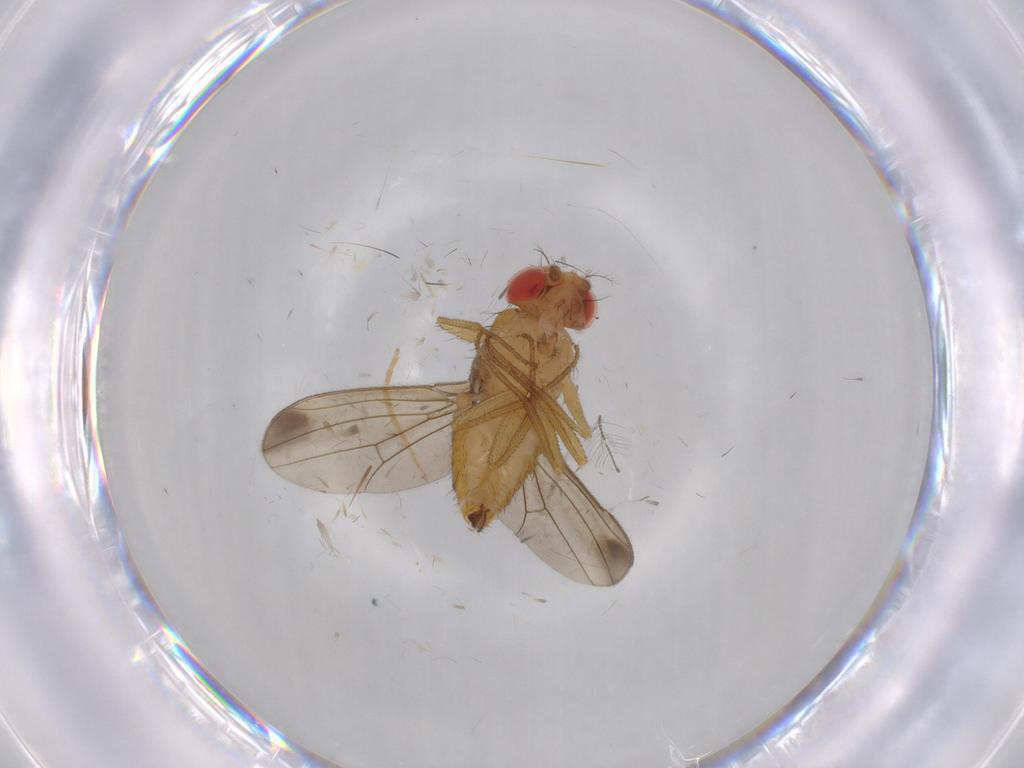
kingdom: Animalia
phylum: Arthropoda
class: Insecta
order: Diptera
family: Drosophilidae
